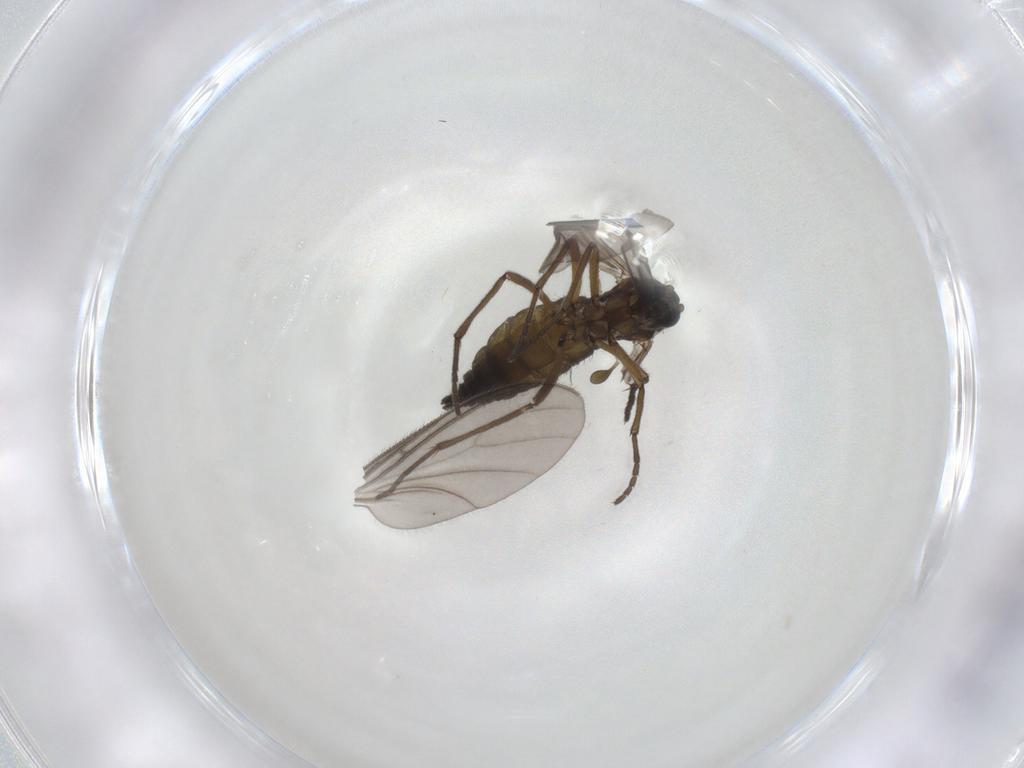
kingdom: Animalia
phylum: Arthropoda
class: Insecta
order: Diptera
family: Sciaridae
